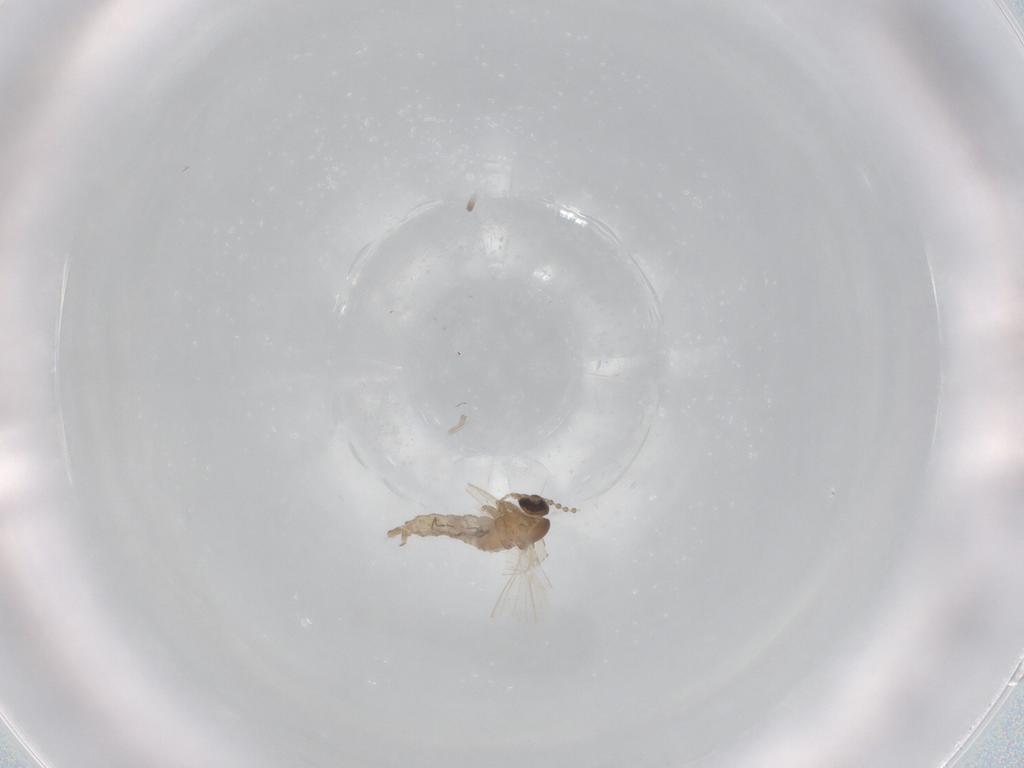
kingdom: Animalia
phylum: Arthropoda
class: Insecta
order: Diptera
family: Psychodidae
